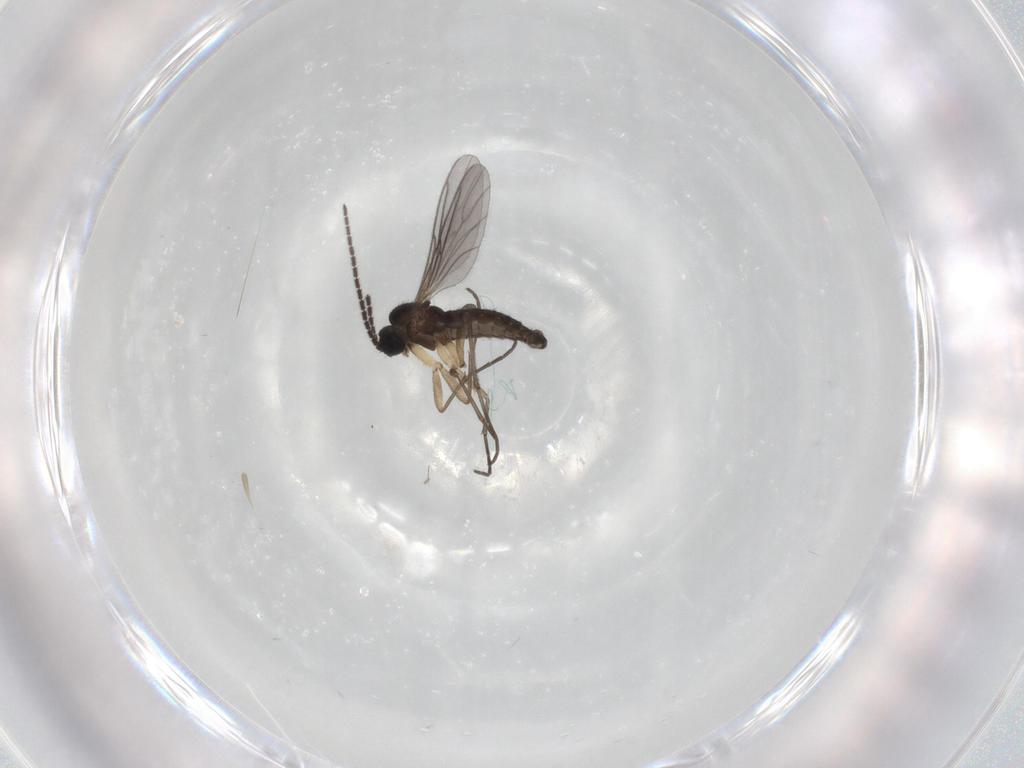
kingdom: Animalia
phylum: Arthropoda
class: Insecta
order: Diptera
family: Sciaridae
